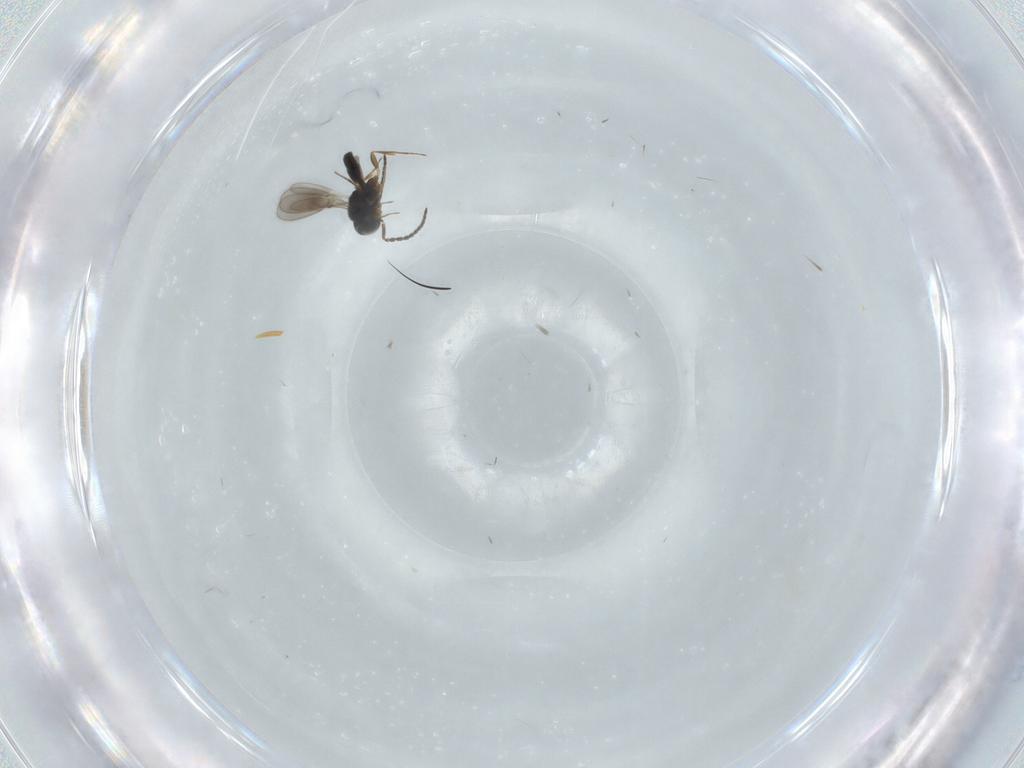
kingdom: Animalia
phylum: Arthropoda
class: Insecta
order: Hymenoptera
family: Scelionidae
